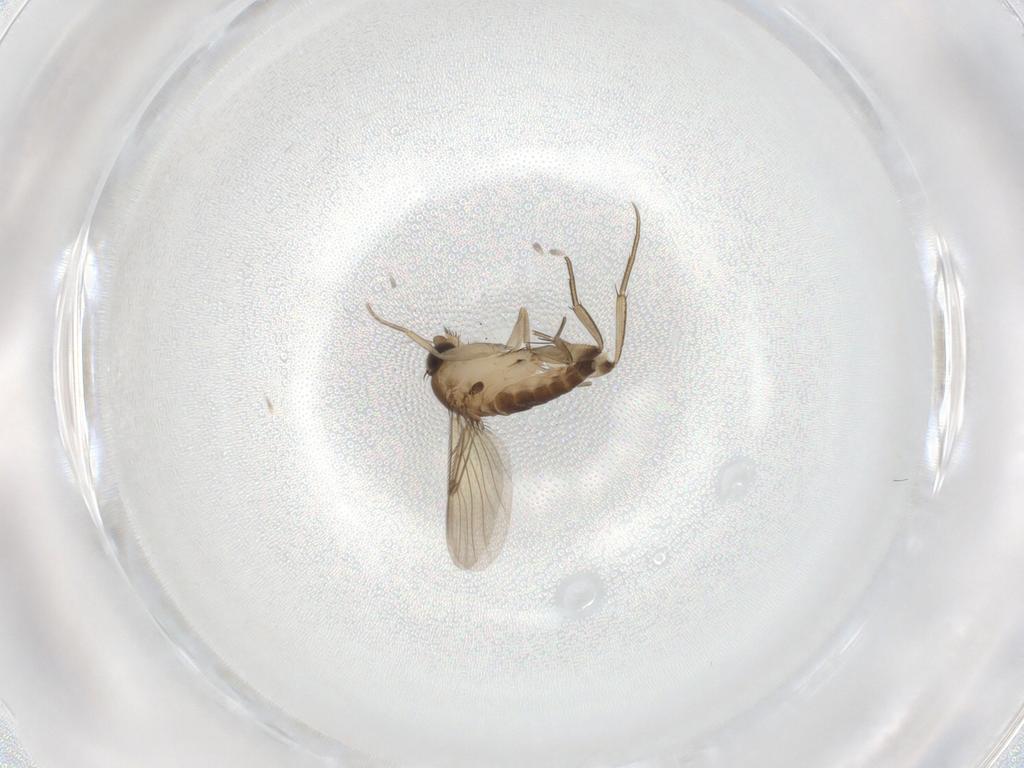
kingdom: Animalia
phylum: Arthropoda
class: Insecta
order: Diptera
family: Phoridae
